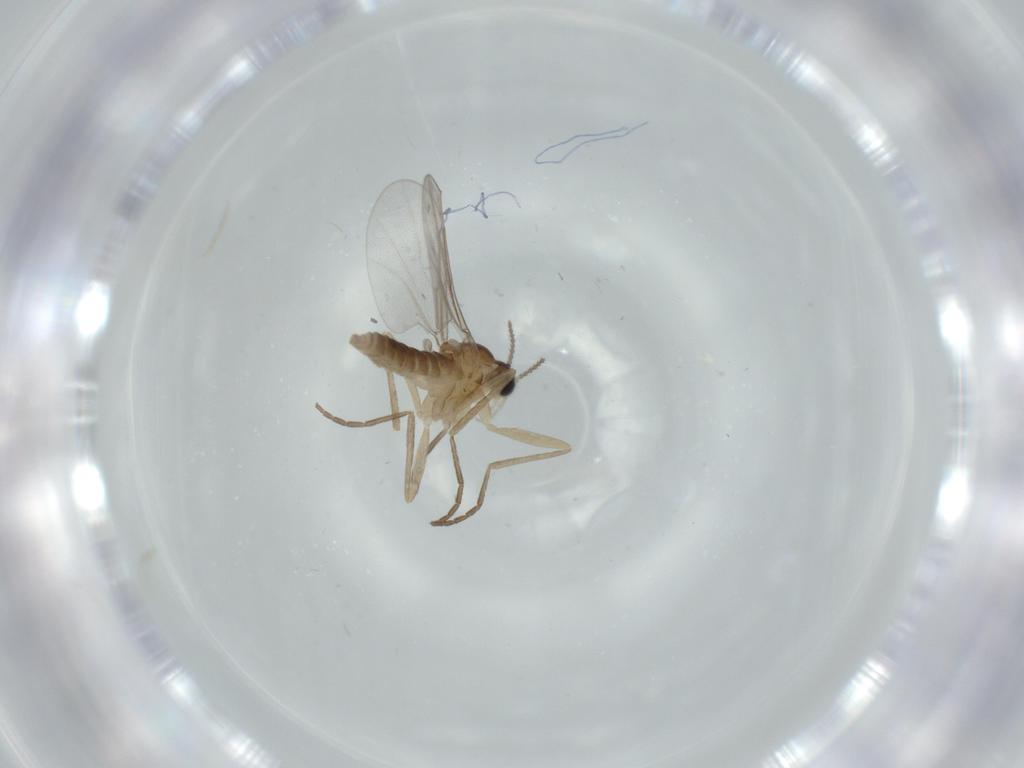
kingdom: Animalia
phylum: Arthropoda
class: Insecta
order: Diptera
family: Cecidomyiidae
